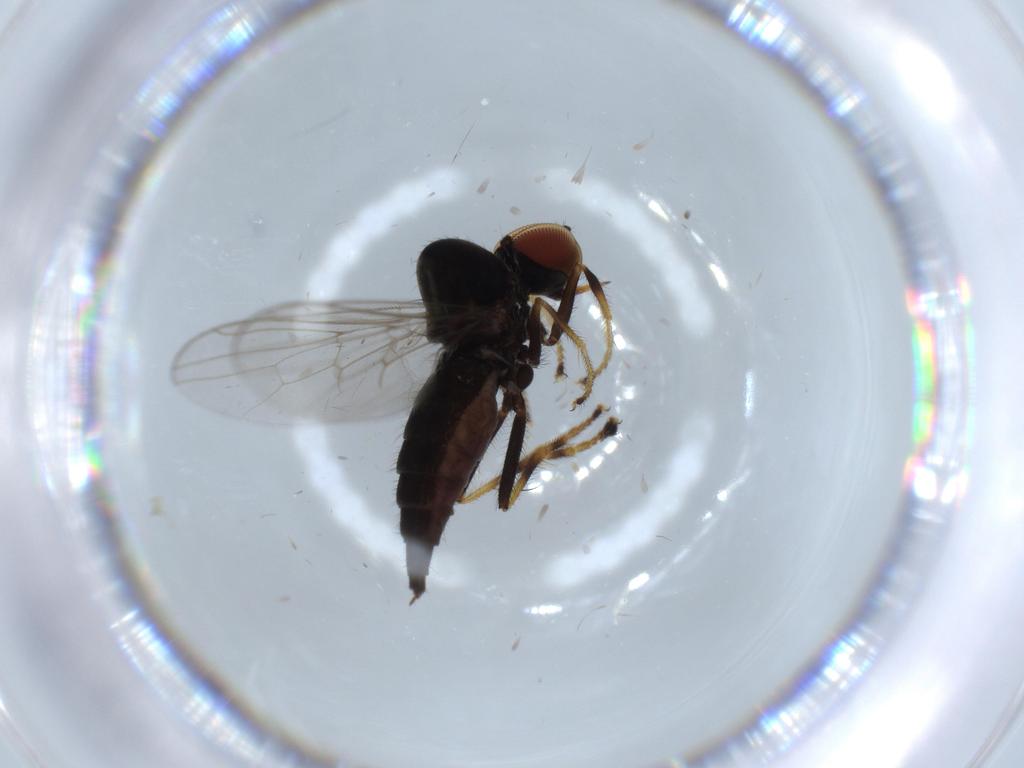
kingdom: Animalia
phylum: Arthropoda
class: Insecta
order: Diptera
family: Hybotidae
